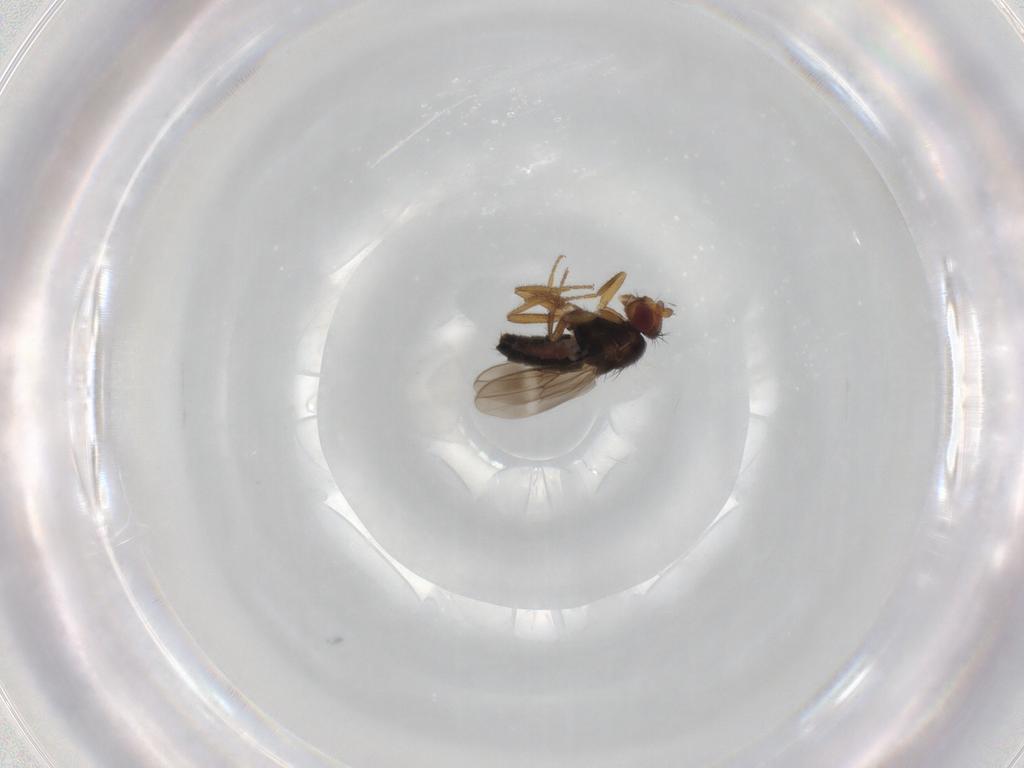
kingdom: Animalia
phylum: Arthropoda
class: Insecta
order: Diptera
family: Sphaeroceridae
